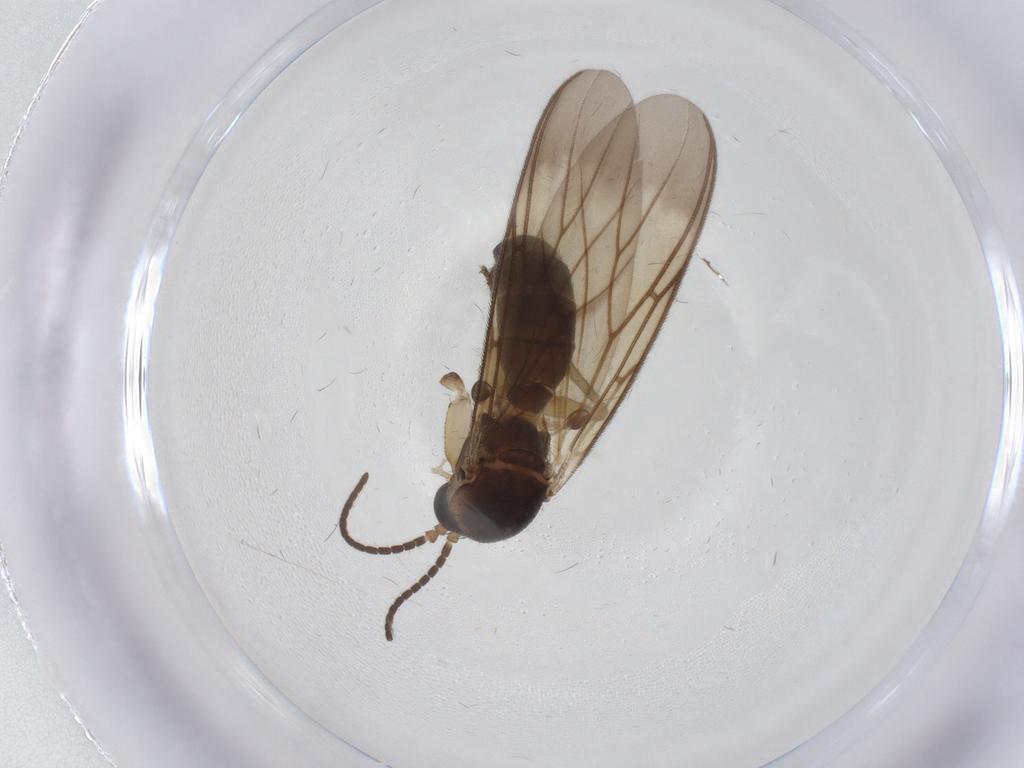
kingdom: Animalia
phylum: Arthropoda
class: Insecta
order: Diptera
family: Mycetophilidae
